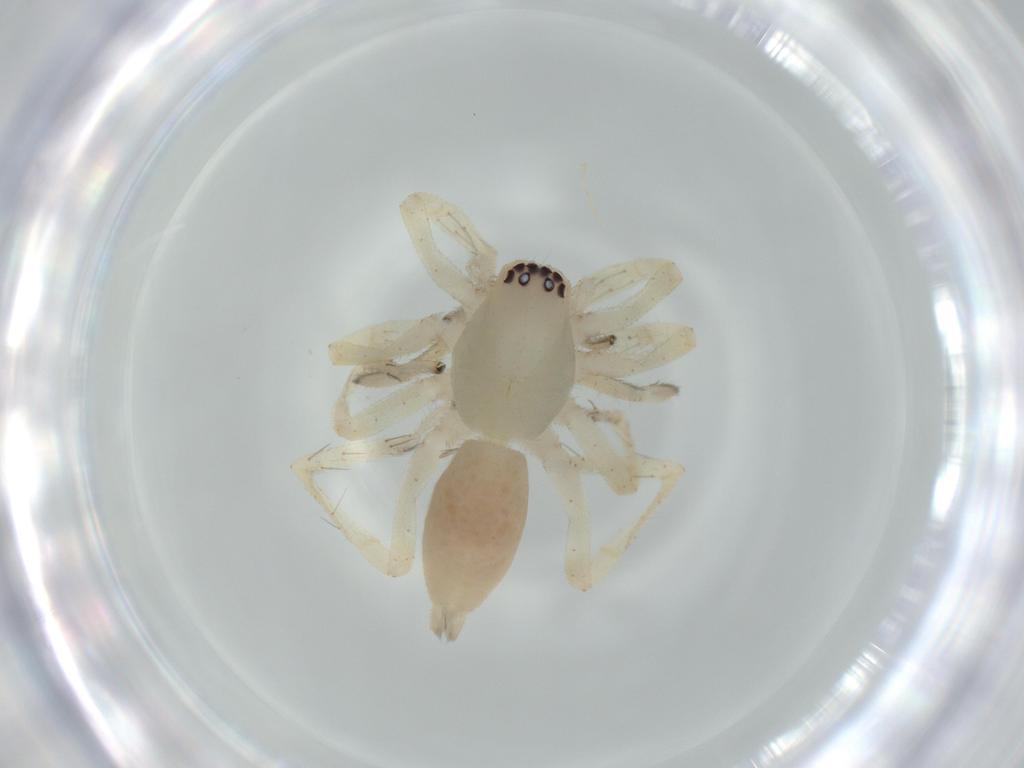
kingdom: Animalia
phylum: Arthropoda
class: Arachnida
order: Araneae
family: Linyphiidae
